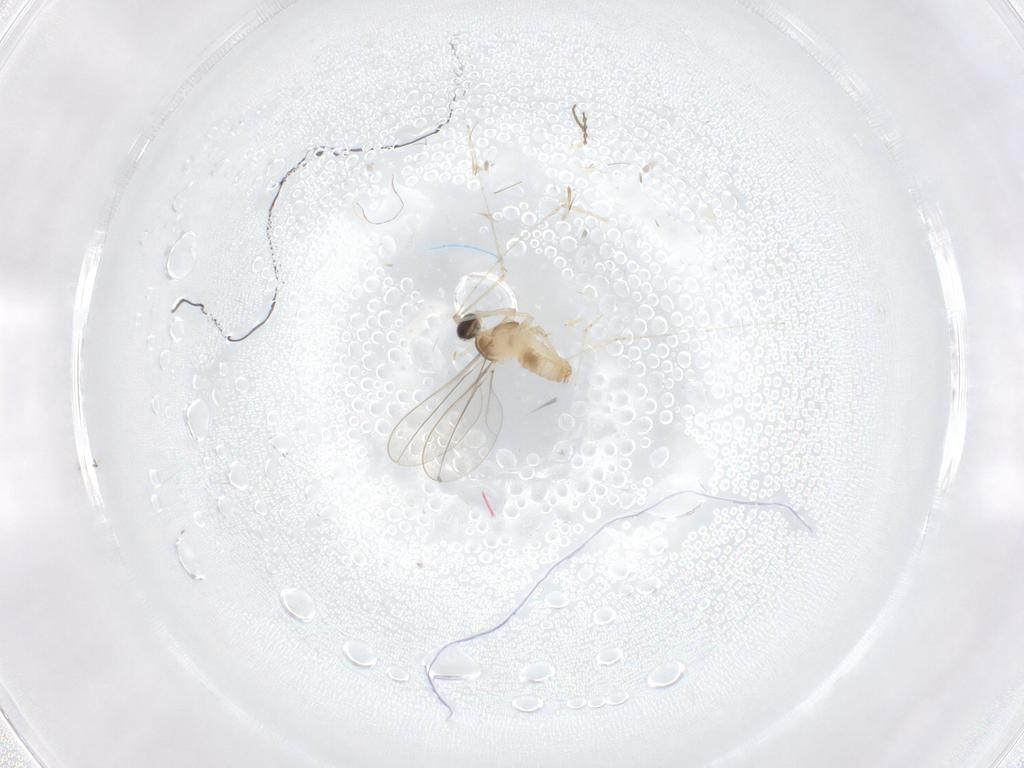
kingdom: Animalia
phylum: Arthropoda
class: Insecta
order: Diptera
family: Cecidomyiidae
